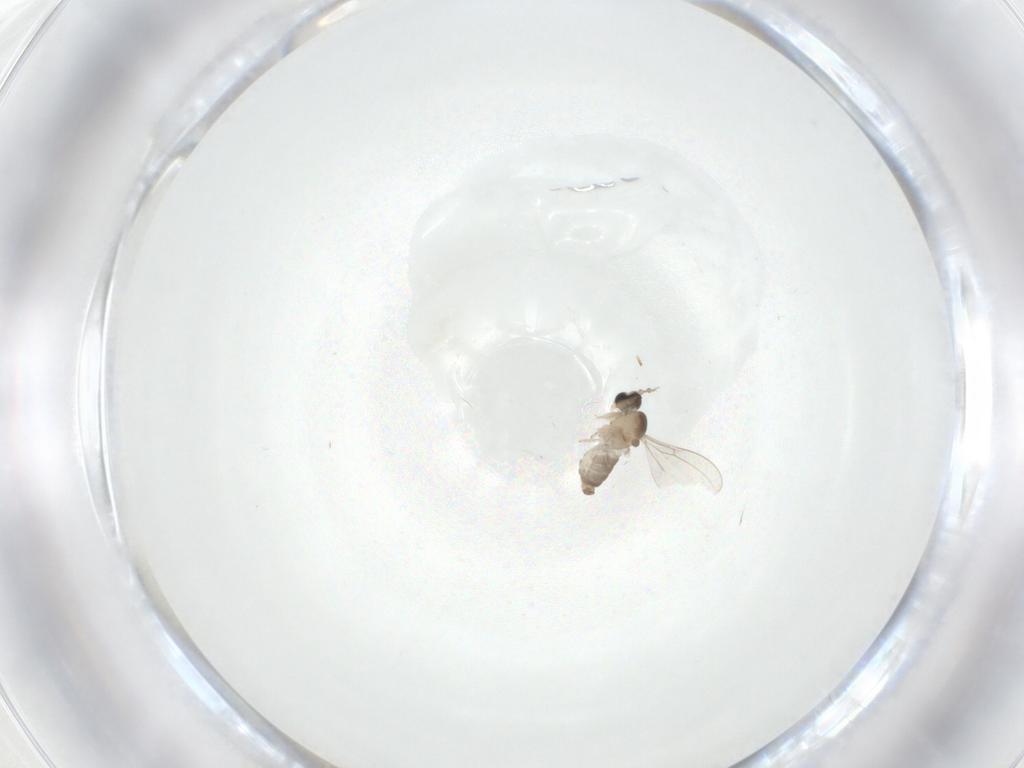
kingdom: Animalia
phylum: Arthropoda
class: Insecta
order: Diptera
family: Cecidomyiidae
